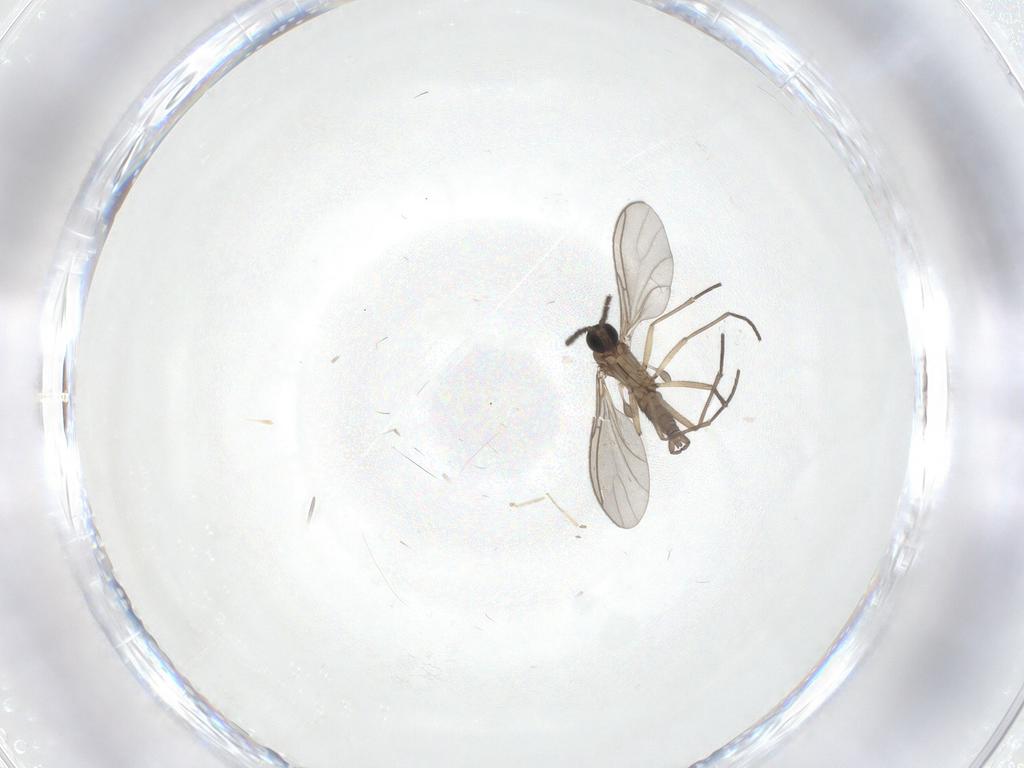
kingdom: Animalia
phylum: Arthropoda
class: Insecta
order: Diptera
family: Sciaridae
